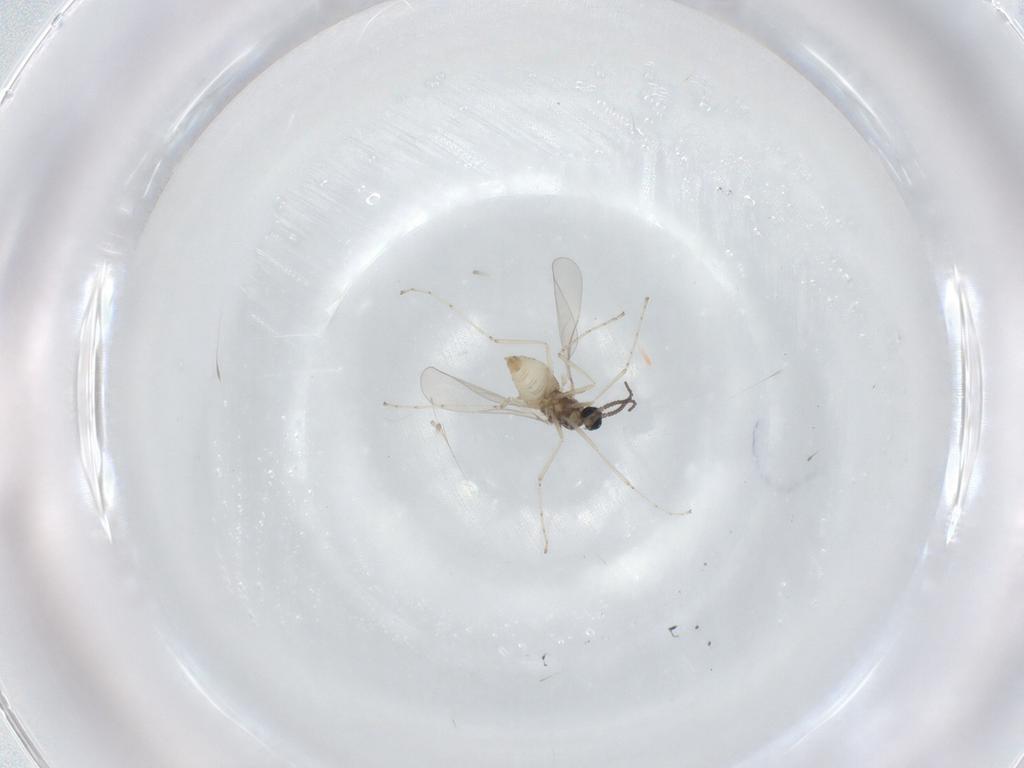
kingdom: Animalia
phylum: Arthropoda
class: Insecta
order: Diptera
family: Cecidomyiidae
